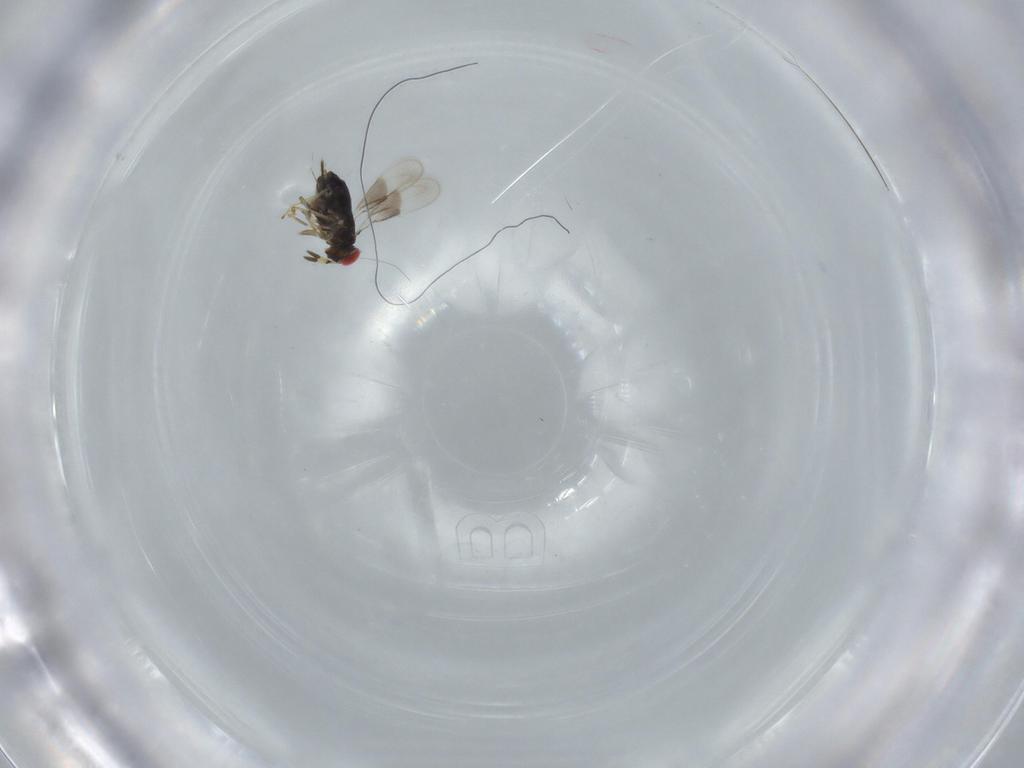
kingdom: Animalia
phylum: Arthropoda
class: Insecta
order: Hymenoptera
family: Azotidae
